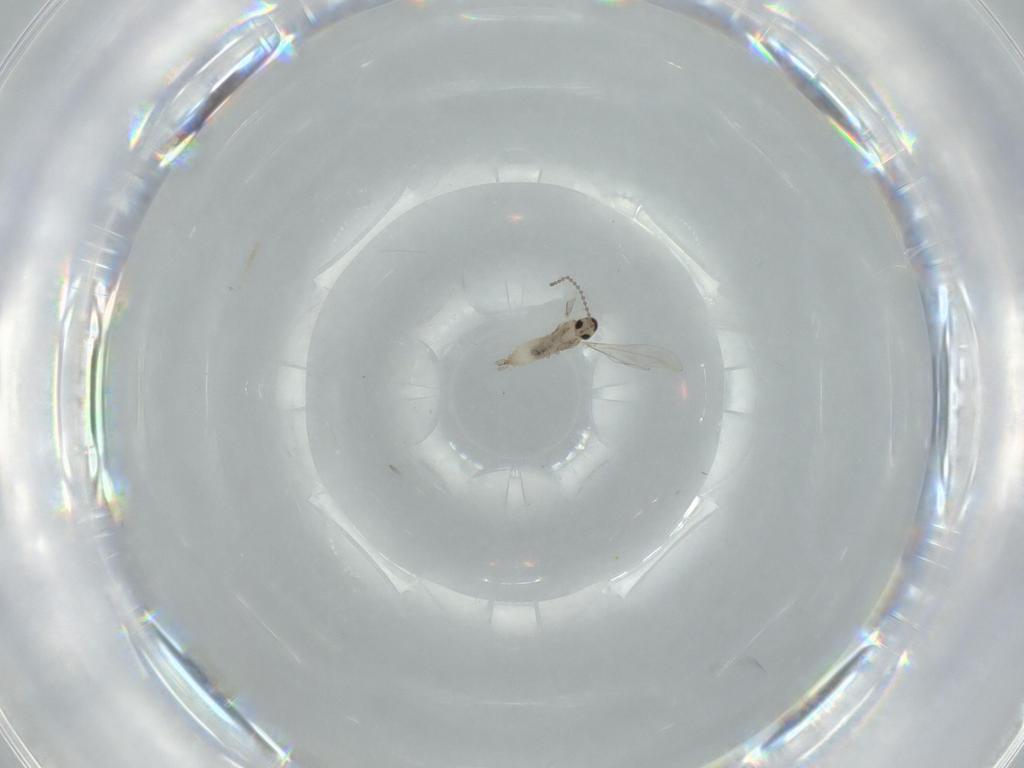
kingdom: Animalia
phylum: Arthropoda
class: Insecta
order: Diptera
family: Cecidomyiidae
